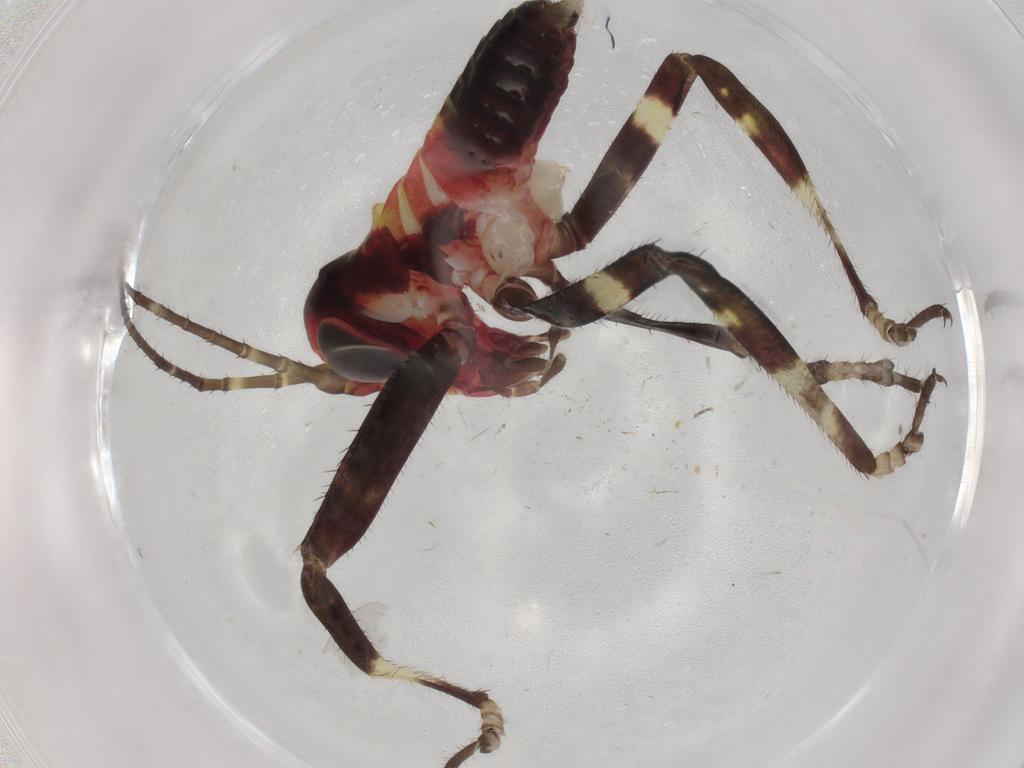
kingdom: Animalia
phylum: Arthropoda
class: Insecta
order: Orthoptera
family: Tettigoniidae
